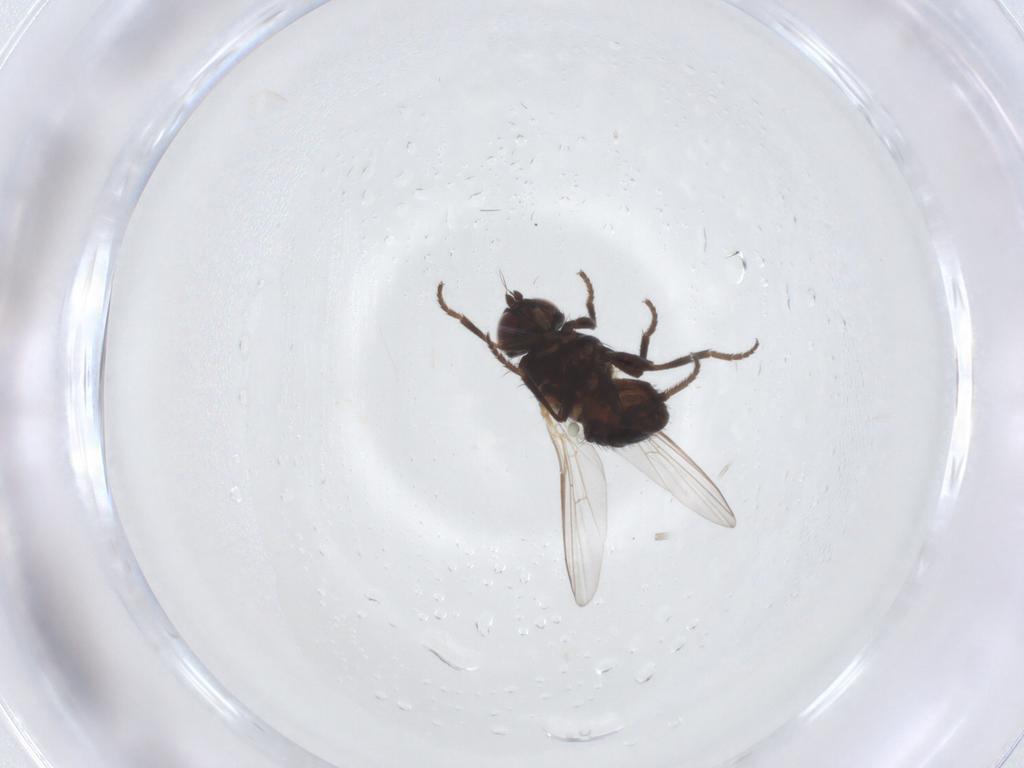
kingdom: Animalia
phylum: Arthropoda
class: Insecta
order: Diptera
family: Agromyzidae
